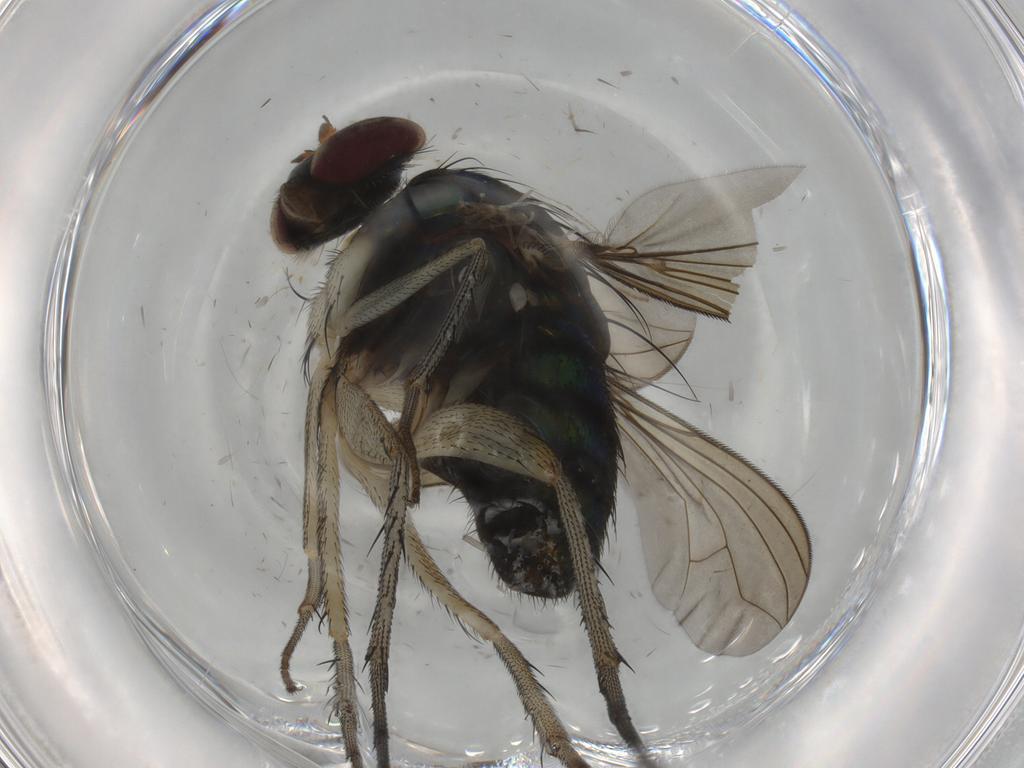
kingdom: Animalia
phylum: Arthropoda
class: Insecta
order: Diptera
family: Dolichopodidae
